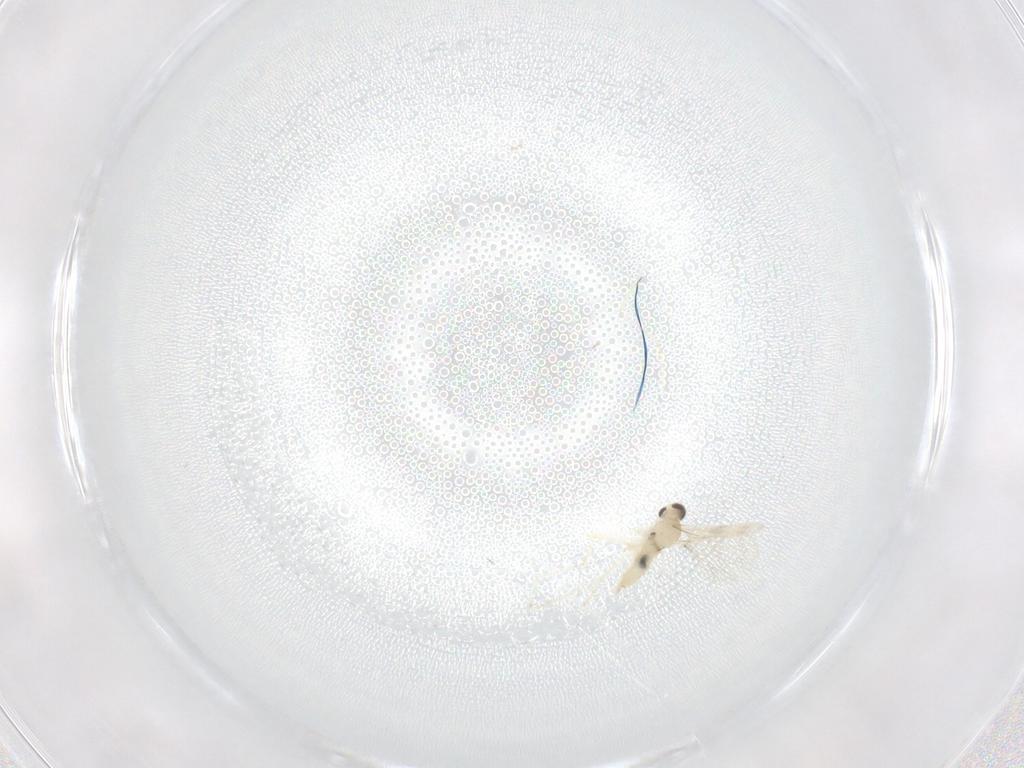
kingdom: Animalia
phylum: Arthropoda
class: Insecta
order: Diptera
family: Cecidomyiidae
